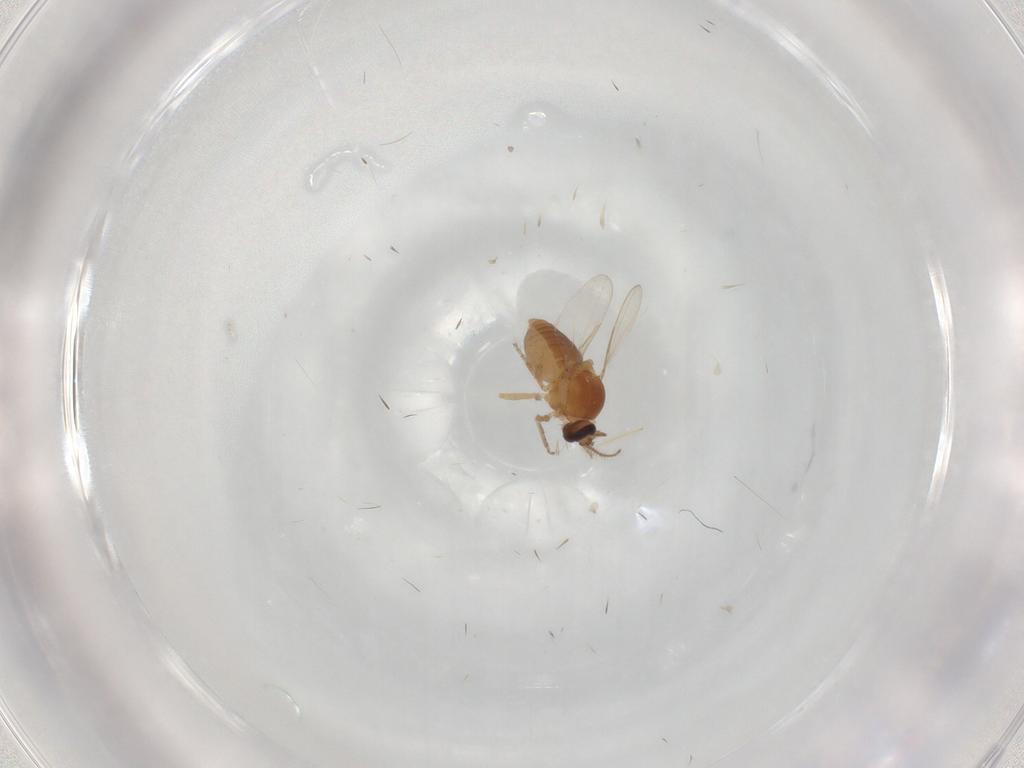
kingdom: Animalia
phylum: Arthropoda
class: Insecta
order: Diptera
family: Ceratopogonidae
